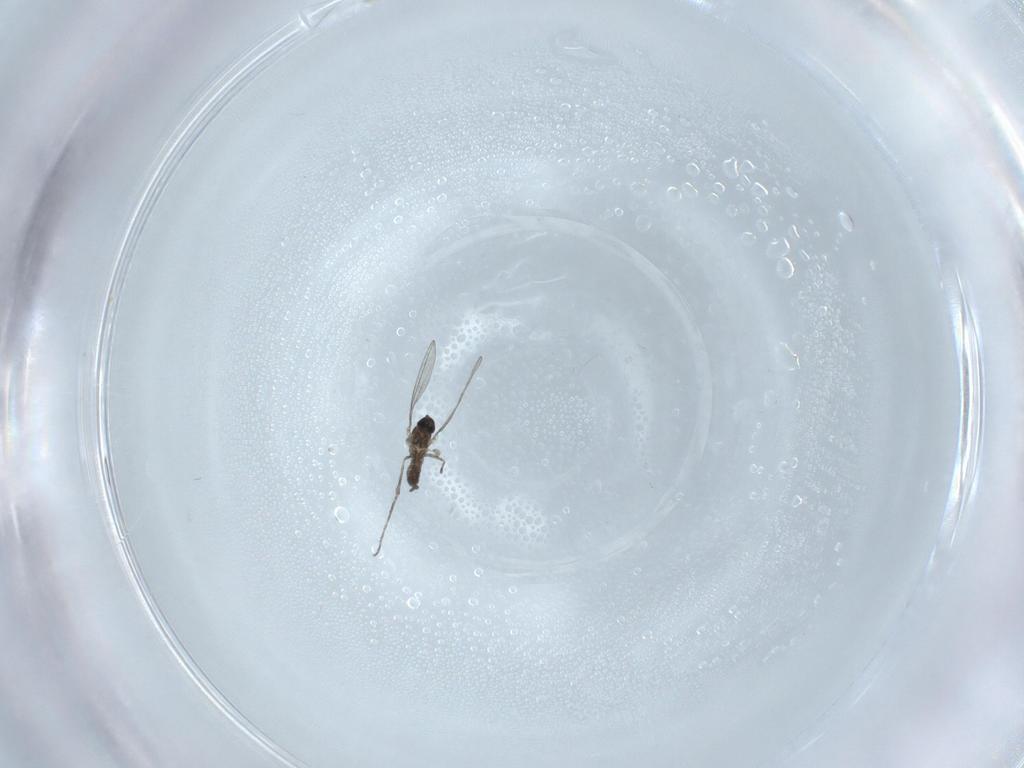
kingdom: Animalia
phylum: Arthropoda
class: Insecta
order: Diptera
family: Cecidomyiidae
